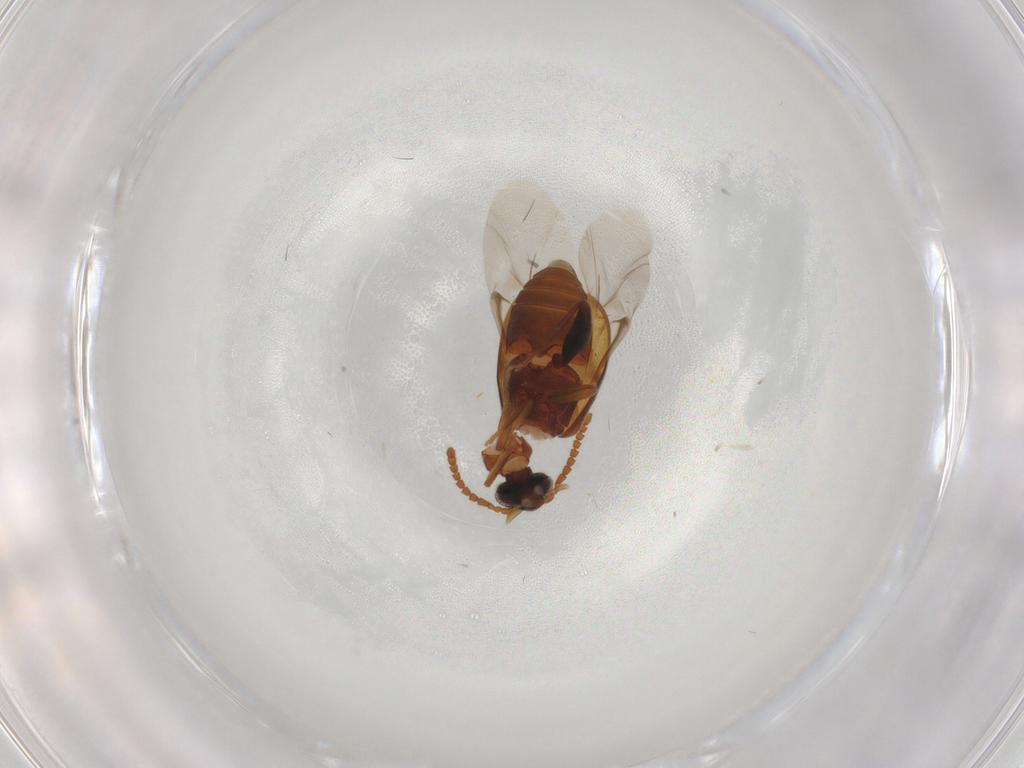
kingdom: Animalia
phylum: Arthropoda
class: Insecta
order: Coleoptera
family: Aderidae
